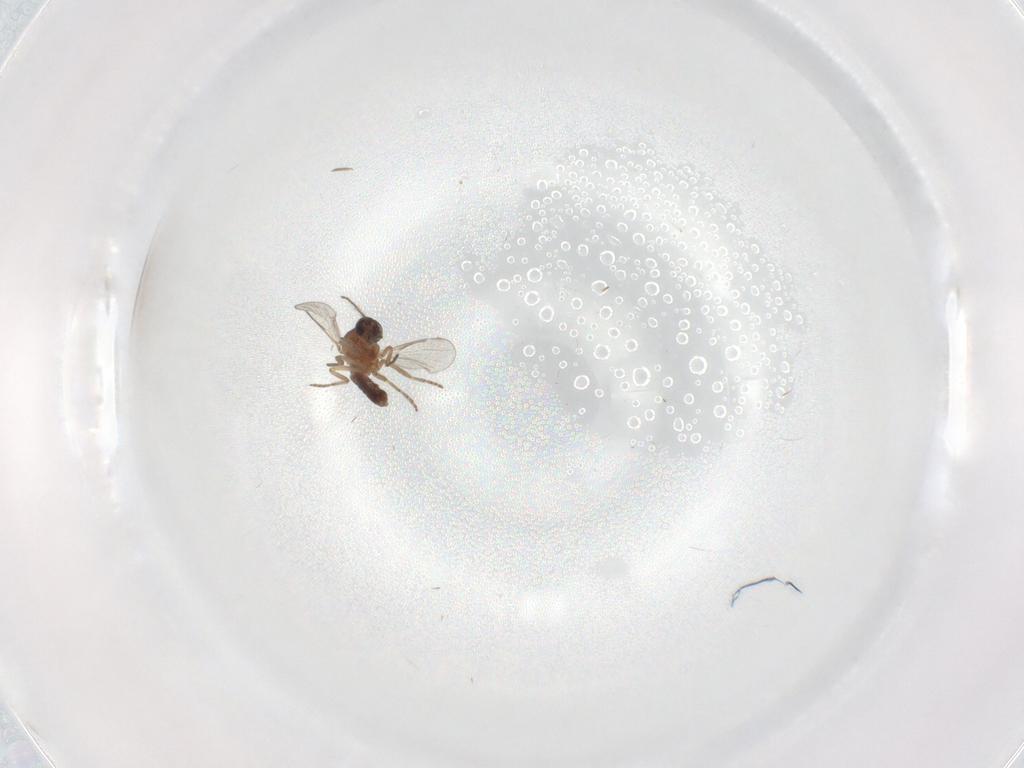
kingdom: Animalia
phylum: Arthropoda
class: Insecta
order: Diptera
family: Ceratopogonidae
